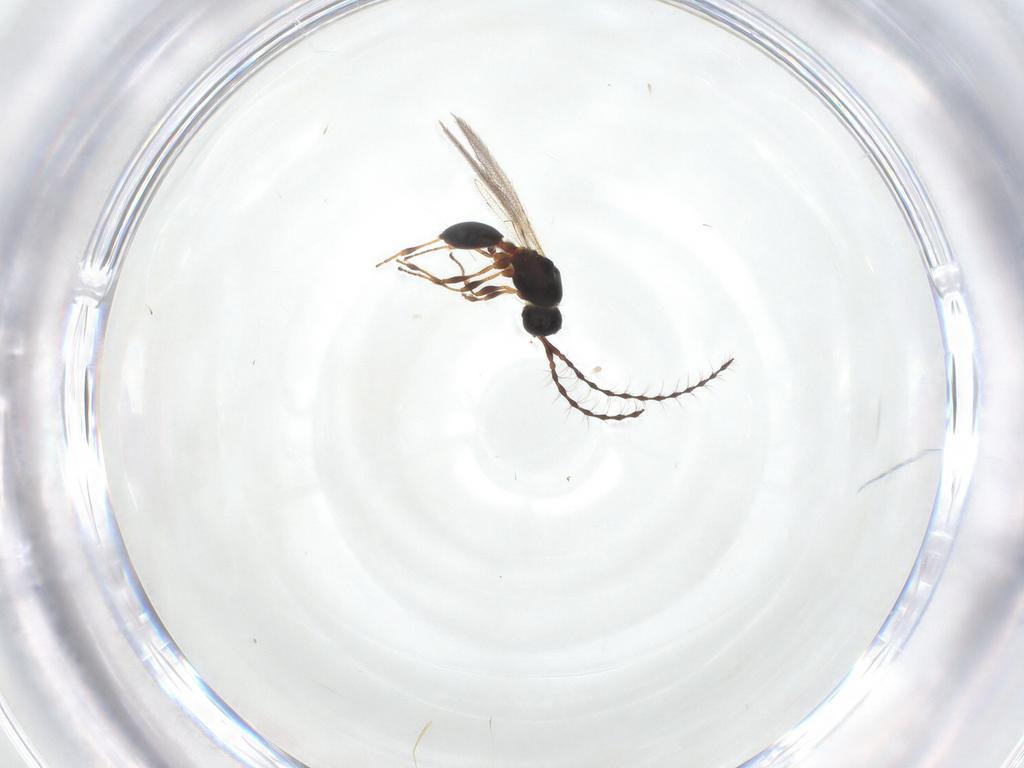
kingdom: Animalia
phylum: Arthropoda
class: Insecta
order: Hymenoptera
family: Diapriidae
